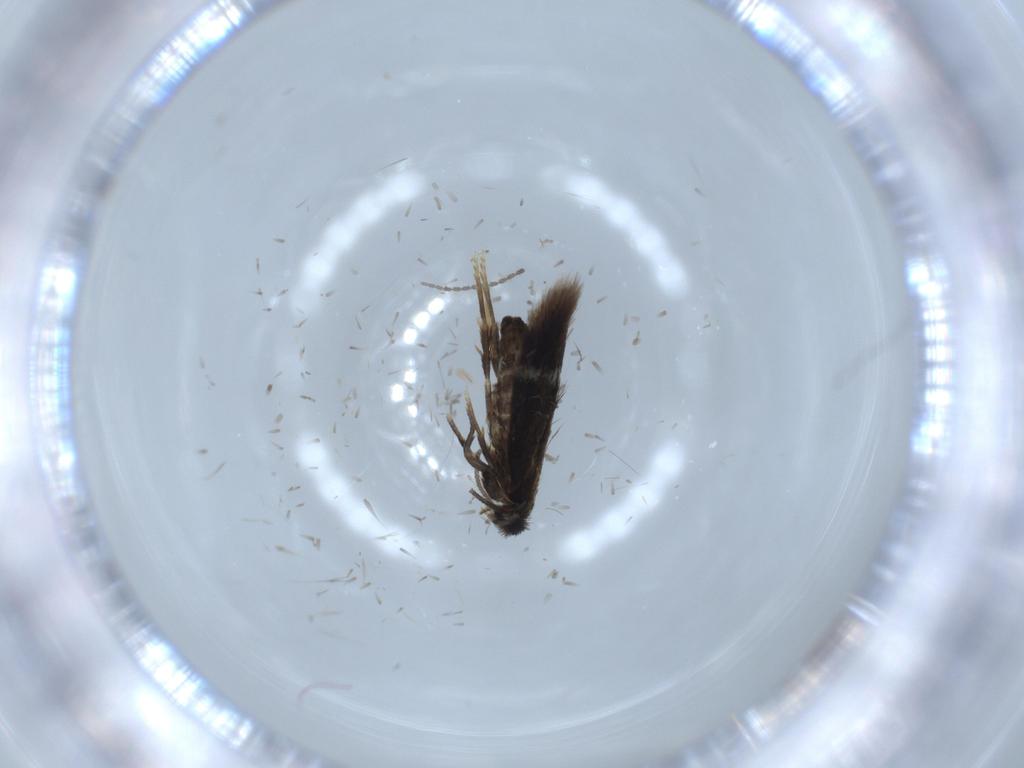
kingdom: Animalia
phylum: Arthropoda
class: Insecta
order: Lepidoptera
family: Nepticulidae
